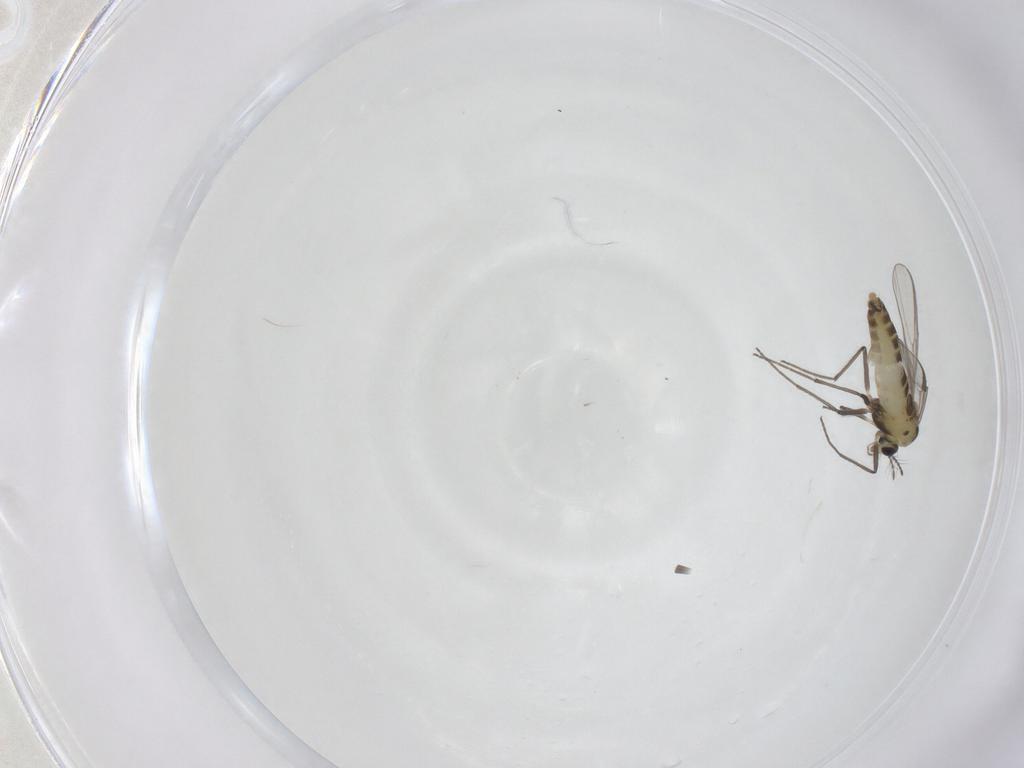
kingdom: Animalia
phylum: Arthropoda
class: Insecta
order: Diptera
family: Chironomidae
